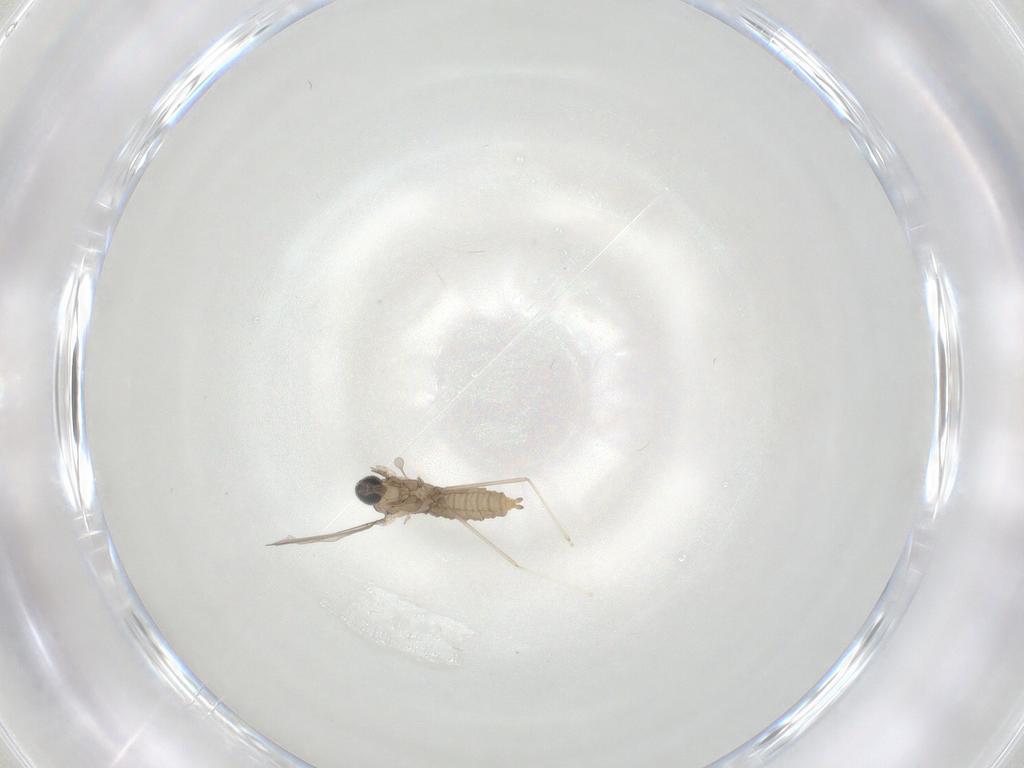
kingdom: Animalia
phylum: Arthropoda
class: Insecta
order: Diptera
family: Cecidomyiidae
